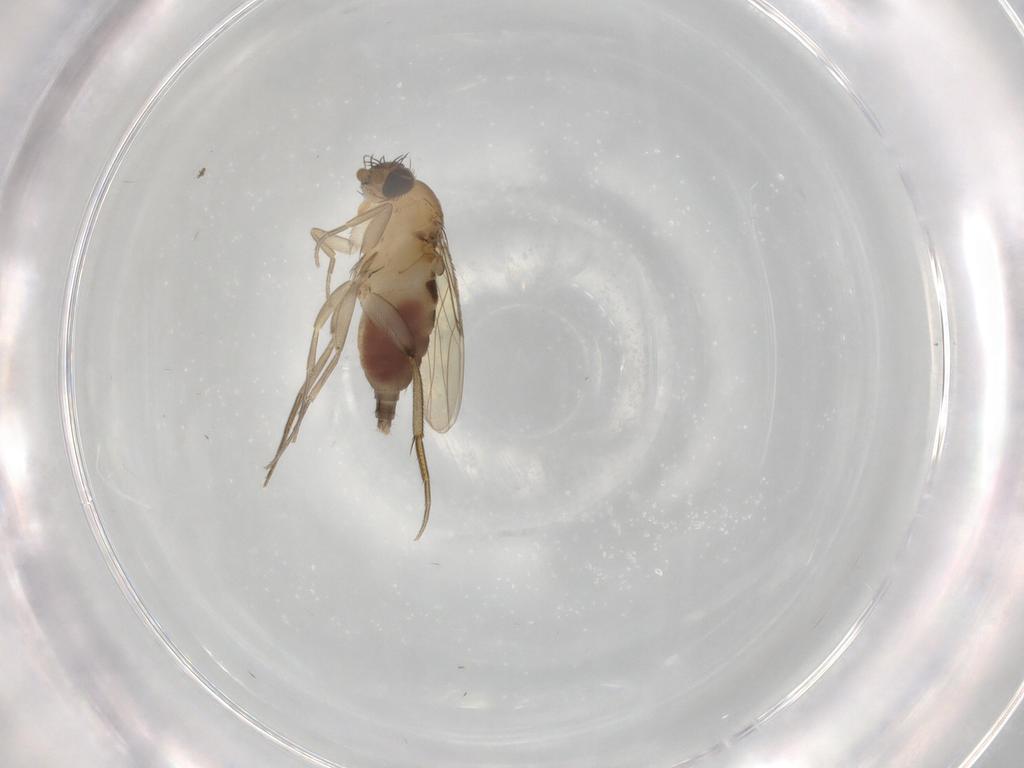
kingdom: Animalia
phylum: Arthropoda
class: Insecta
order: Diptera
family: Phoridae
